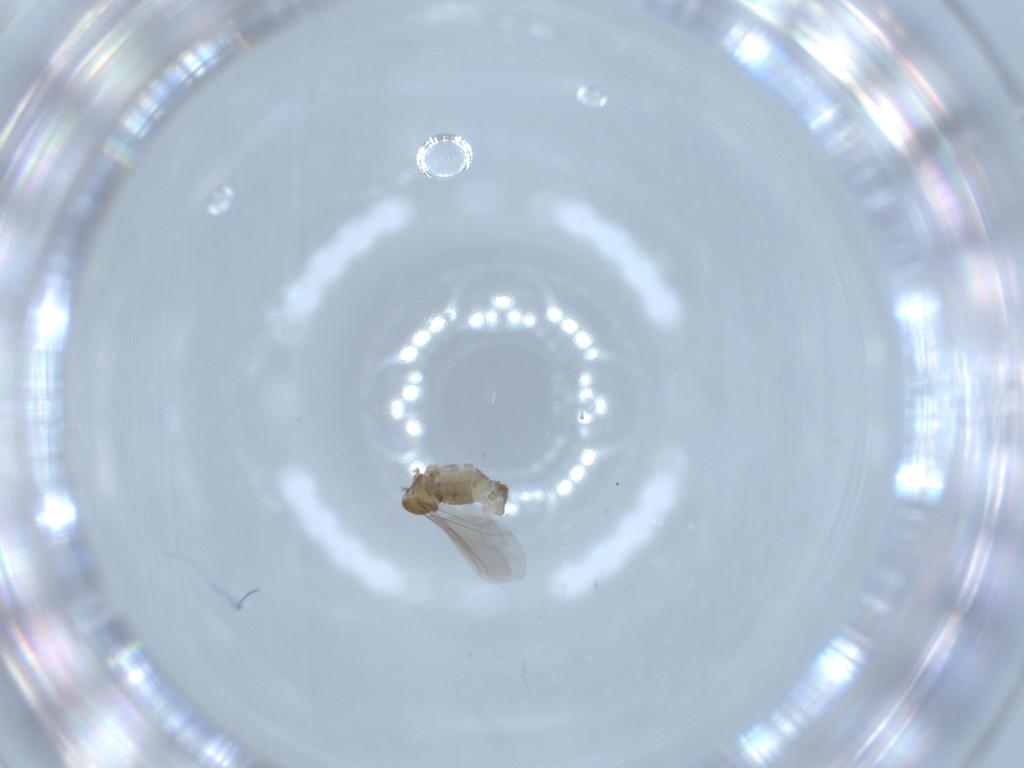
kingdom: Animalia
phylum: Arthropoda
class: Insecta
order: Diptera
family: Cecidomyiidae
